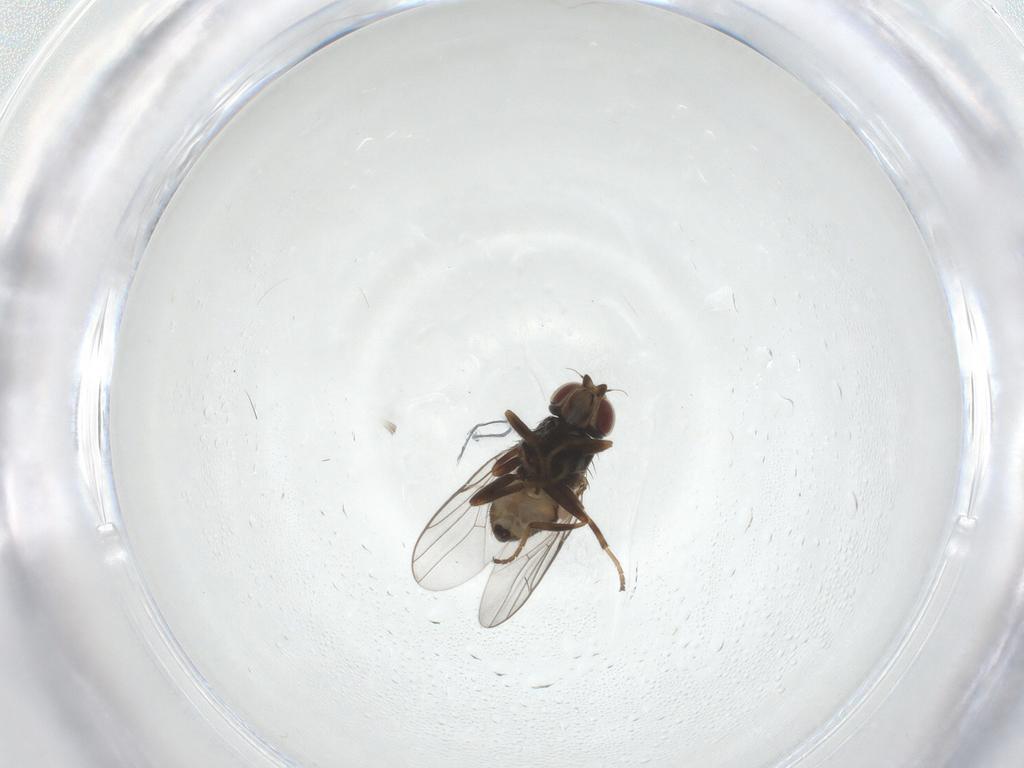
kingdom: Animalia
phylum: Arthropoda
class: Insecta
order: Diptera
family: Chloropidae
